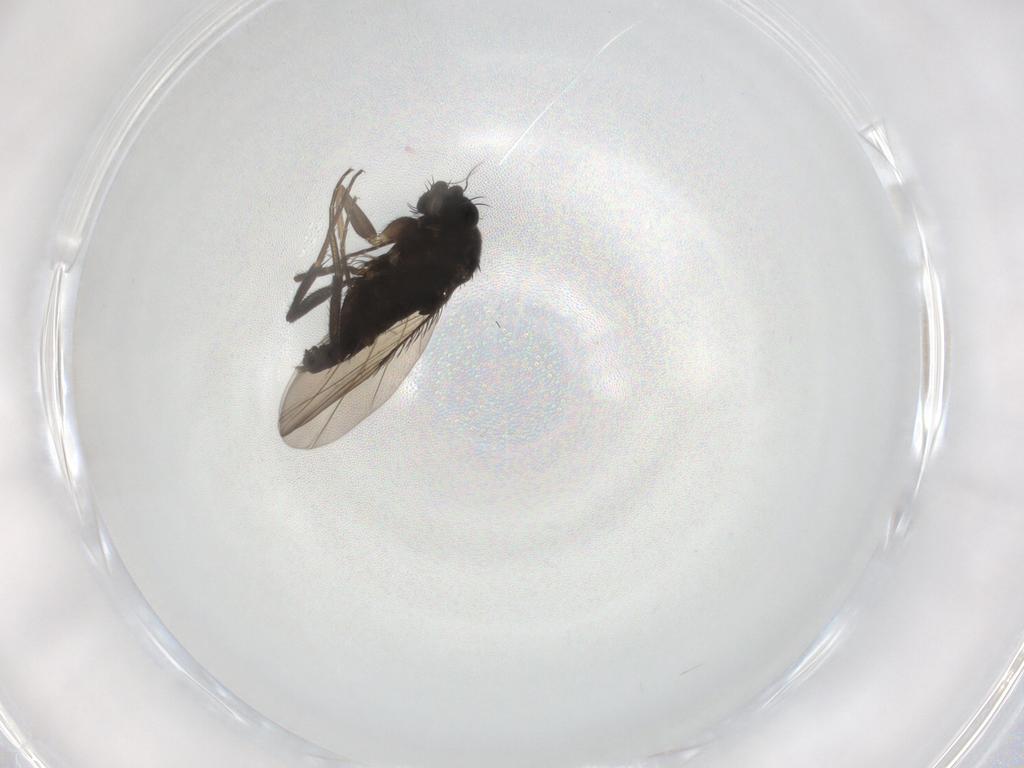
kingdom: Animalia
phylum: Arthropoda
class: Insecta
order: Diptera
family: Phoridae
